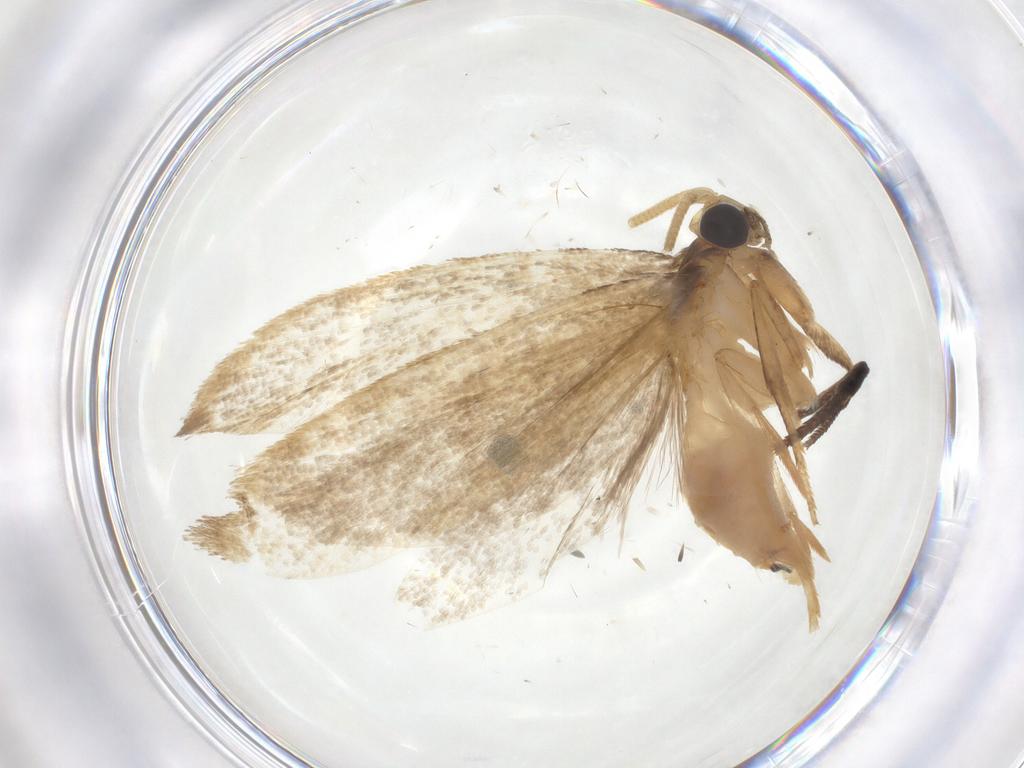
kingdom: Animalia
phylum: Arthropoda
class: Insecta
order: Lepidoptera
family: Erebidae
